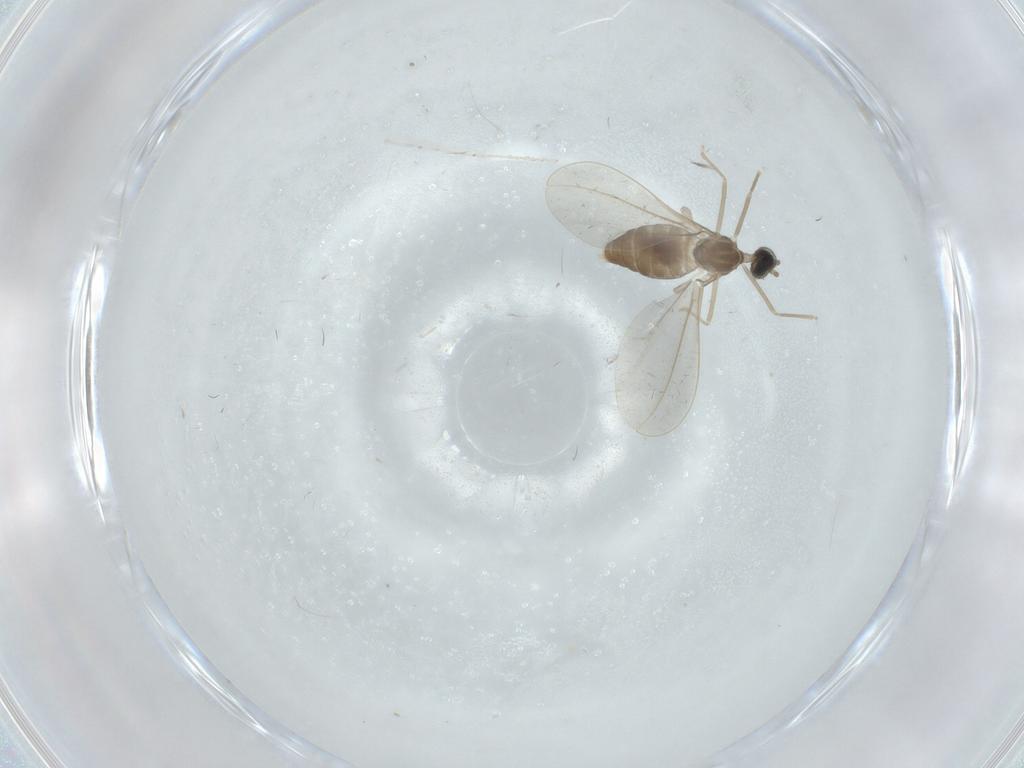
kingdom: Animalia
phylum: Arthropoda
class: Insecta
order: Diptera
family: Cecidomyiidae
